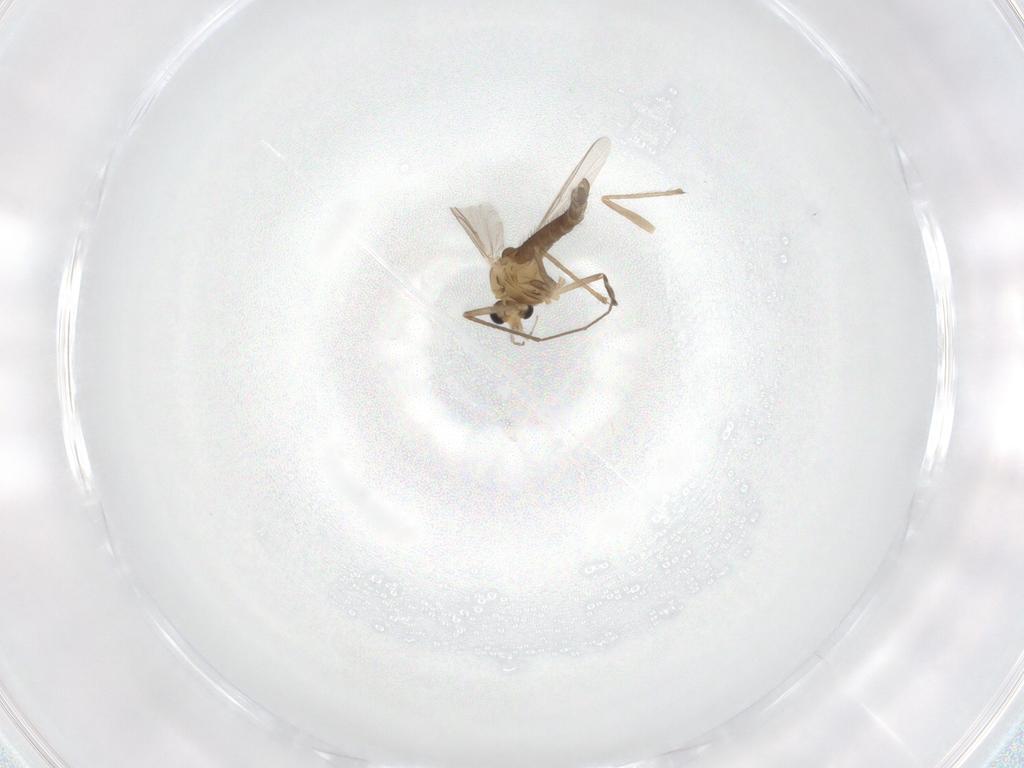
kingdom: Animalia
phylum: Arthropoda
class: Insecta
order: Diptera
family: Chironomidae
